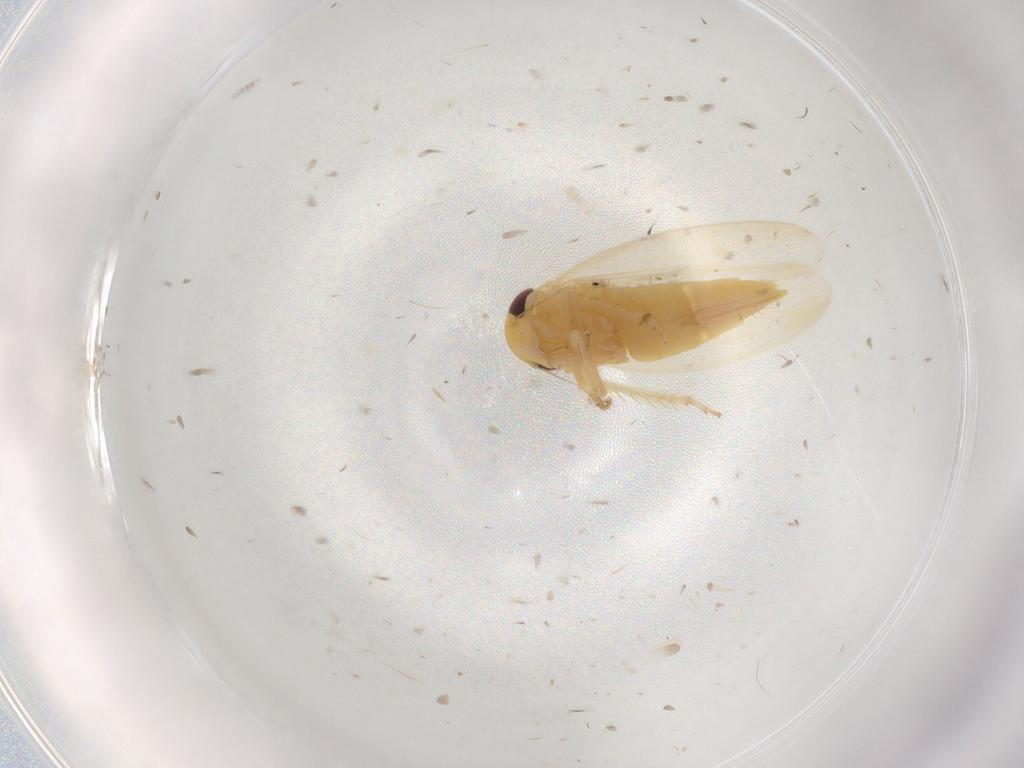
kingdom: Animalia
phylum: Arthropoda
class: Insecta
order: Hemiptera
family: Cicadellidae
